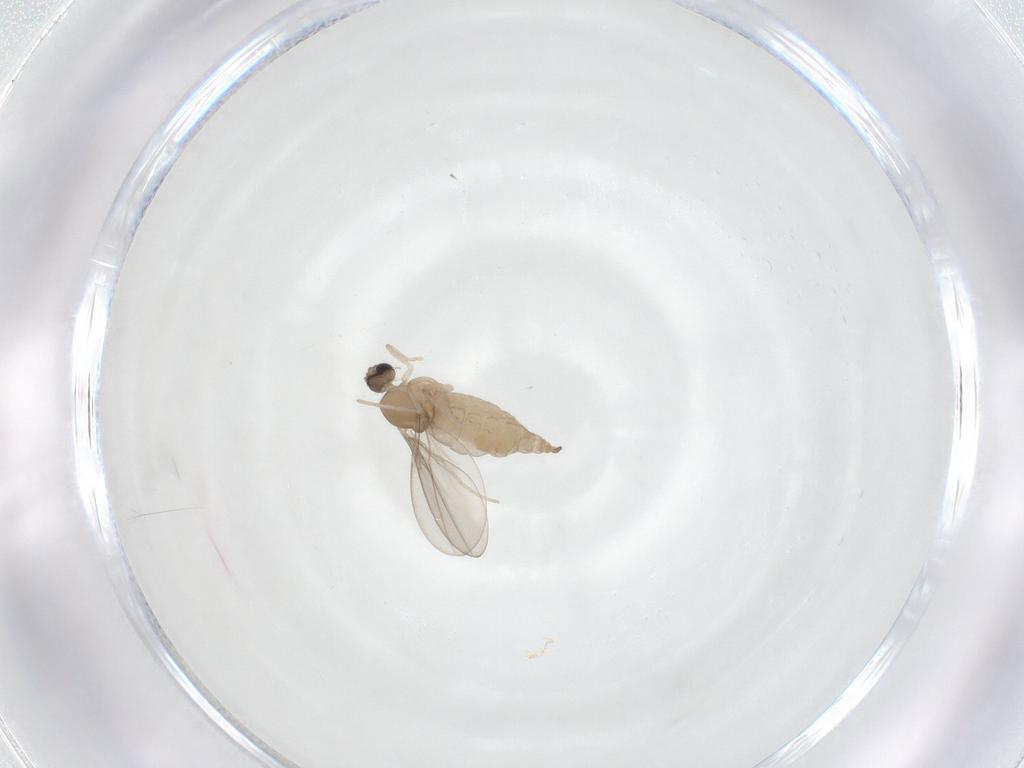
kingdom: Animalia
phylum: Arthropoda
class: Insecta
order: Diptera
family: Cecidomyiidae
